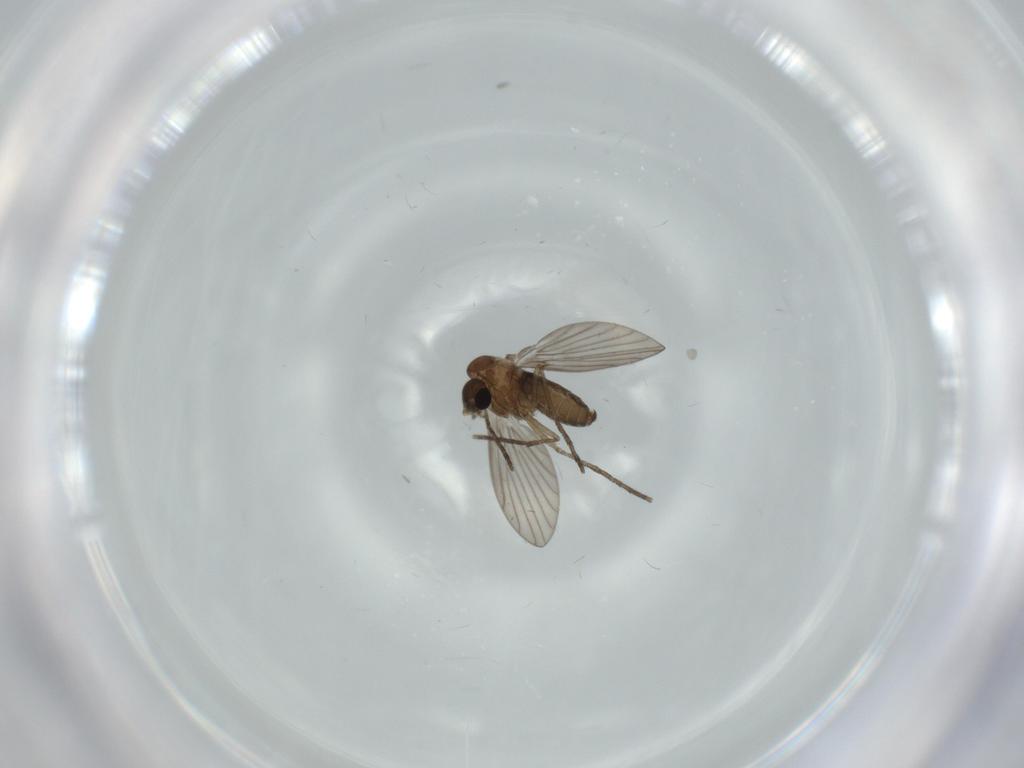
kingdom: Animalia
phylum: Arthropoda
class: Insecta
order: Diptera
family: Psychodidae
